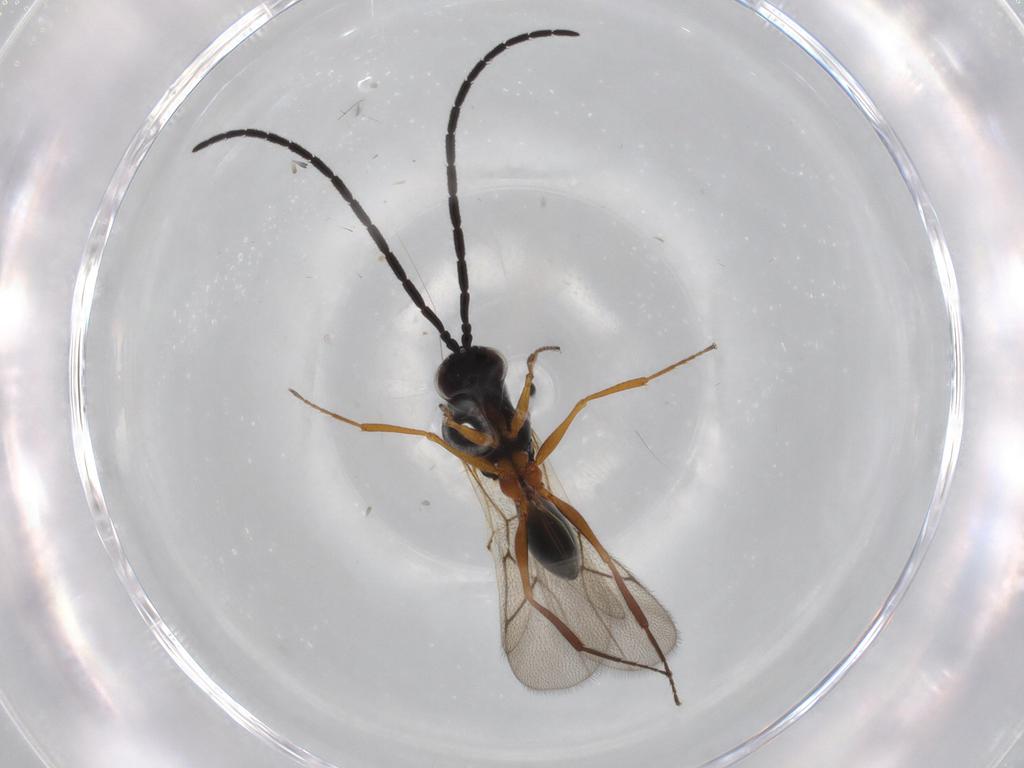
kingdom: Animalia
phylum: Arthropoda
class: Insecta
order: Hymenoptera
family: Figitidae
